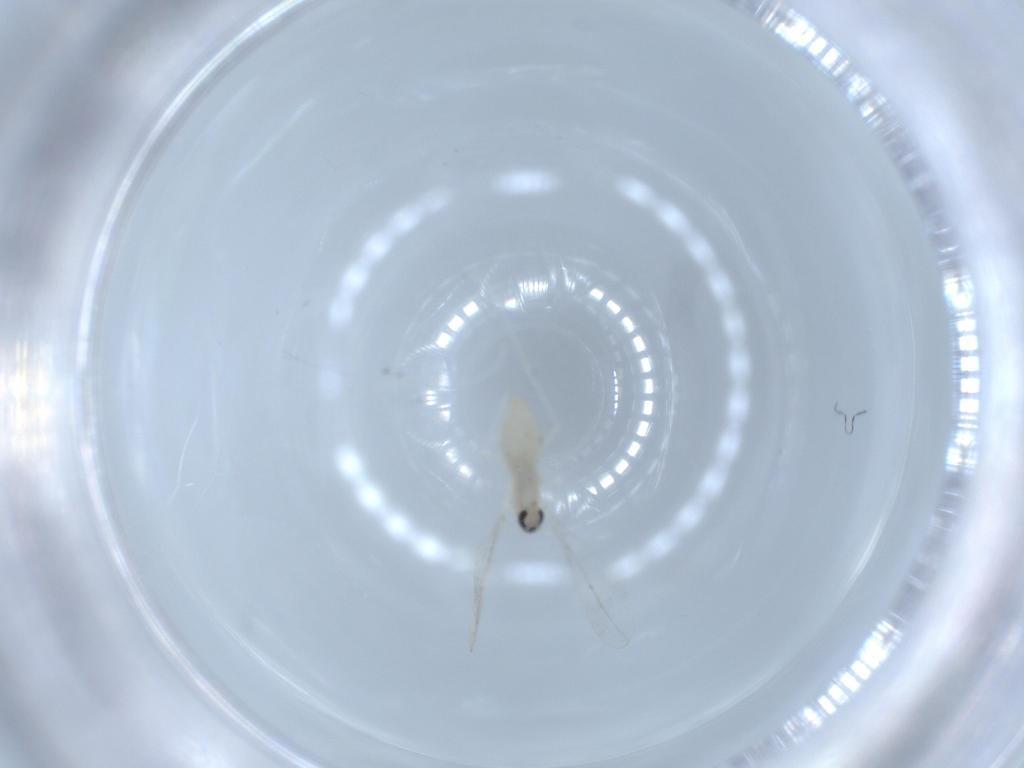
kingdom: Animalia
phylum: Arthropoda
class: Insecta
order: Diptera
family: Cecidomyiidae
